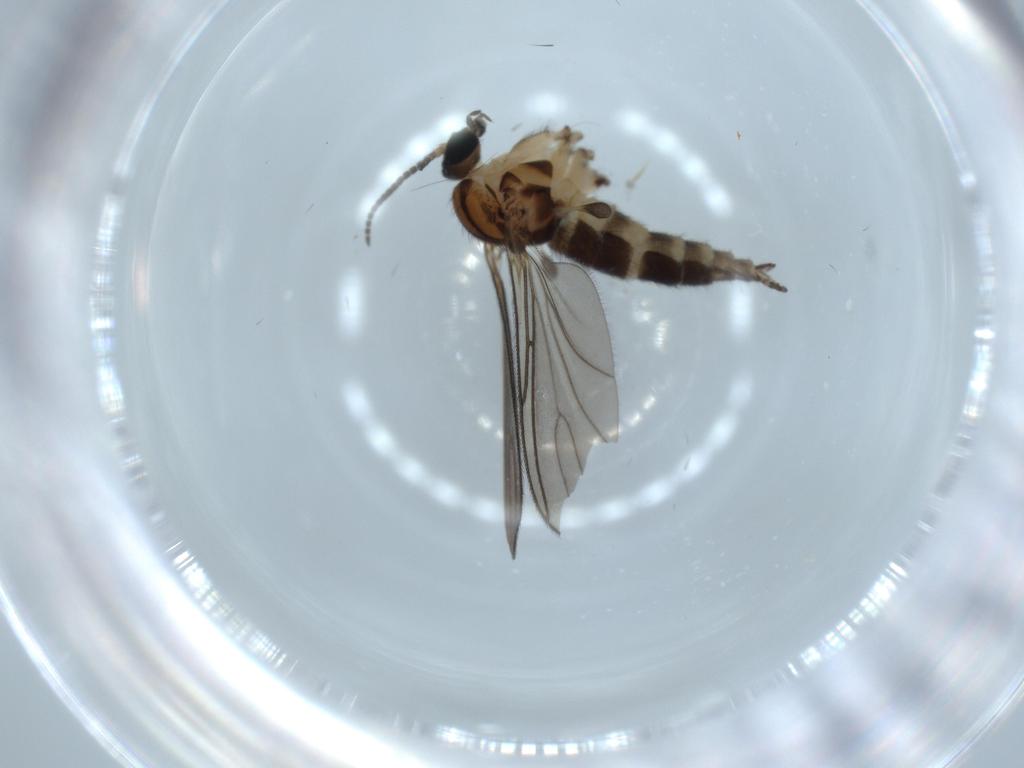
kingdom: Animalia
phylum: Arthropoda
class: Insecta
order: Diptera
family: Sciaridae
